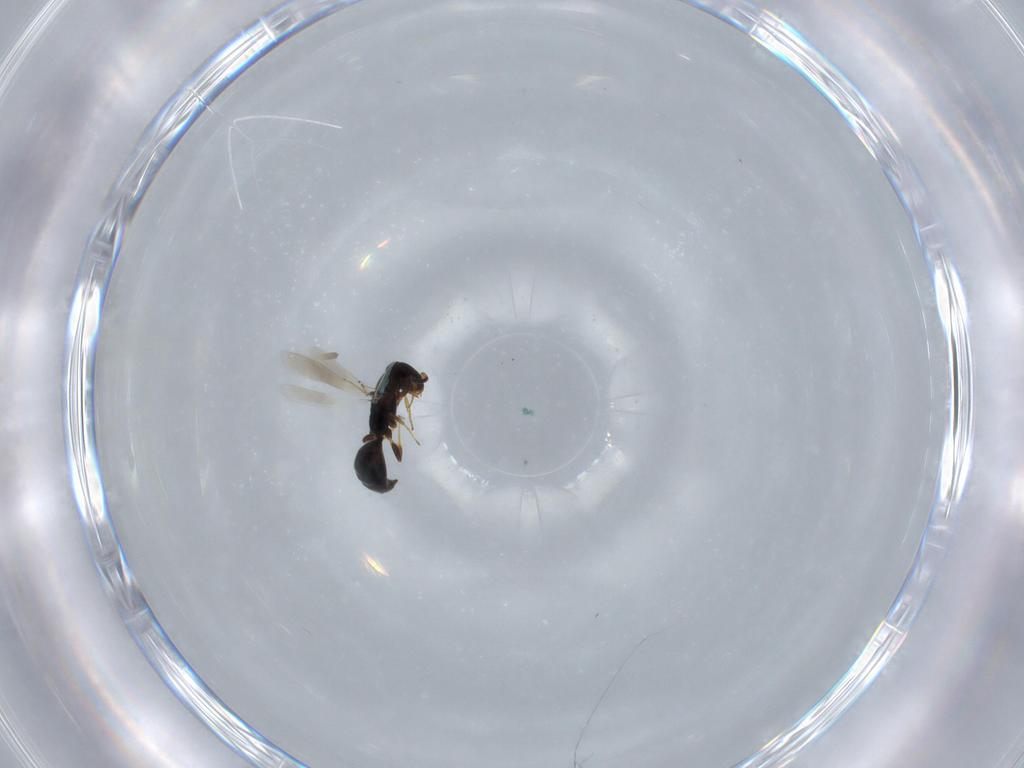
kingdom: Animalia
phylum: Arthropoda
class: Insecta
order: Hymenoptera
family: Bethylidae
